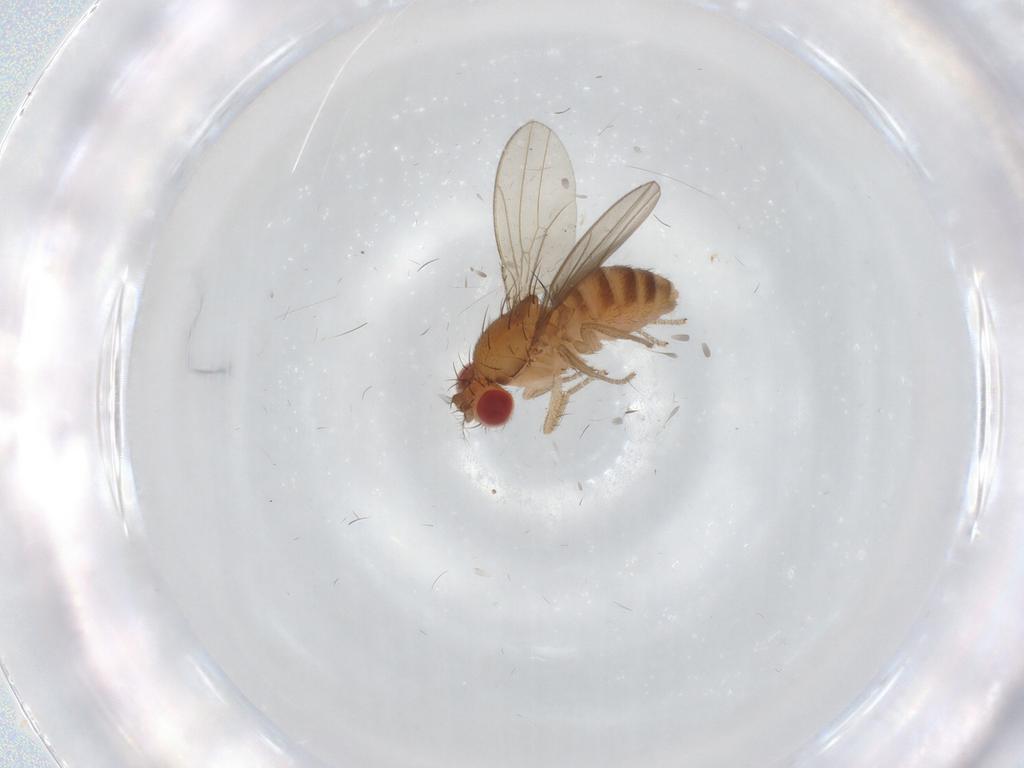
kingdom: Animalia
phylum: Arthropoda
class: Insecta
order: Diptera
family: Drosophilidae
